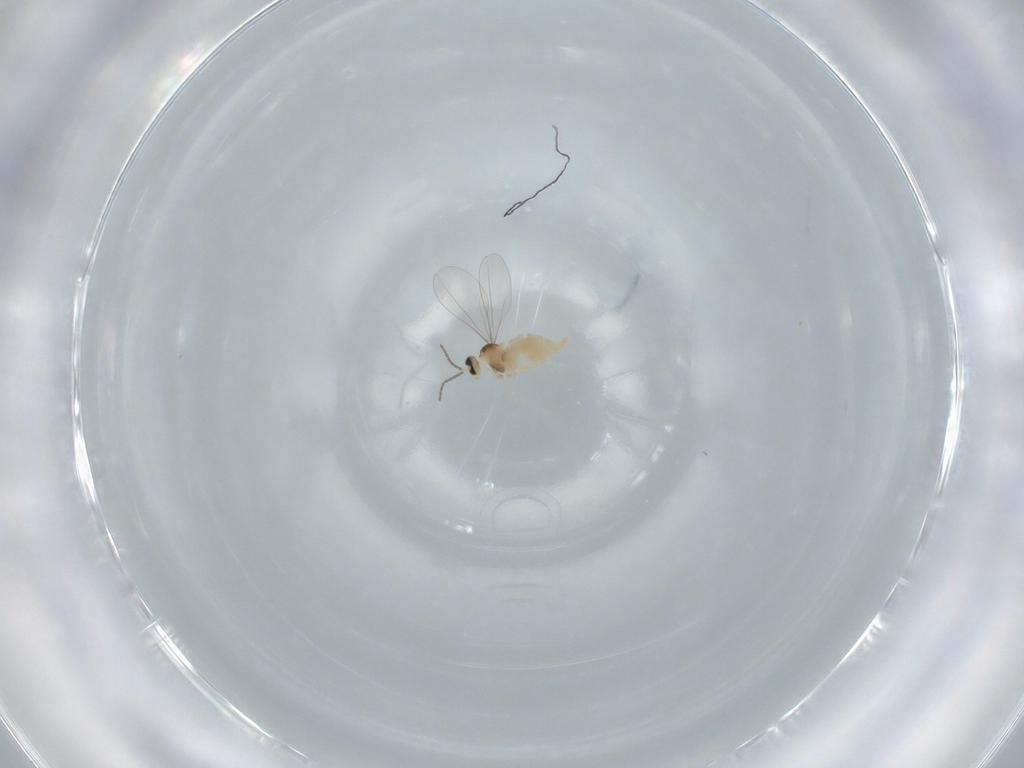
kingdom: Animalia
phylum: Arthropoda
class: Insecta
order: Diptera
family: Cecidomyiidae
